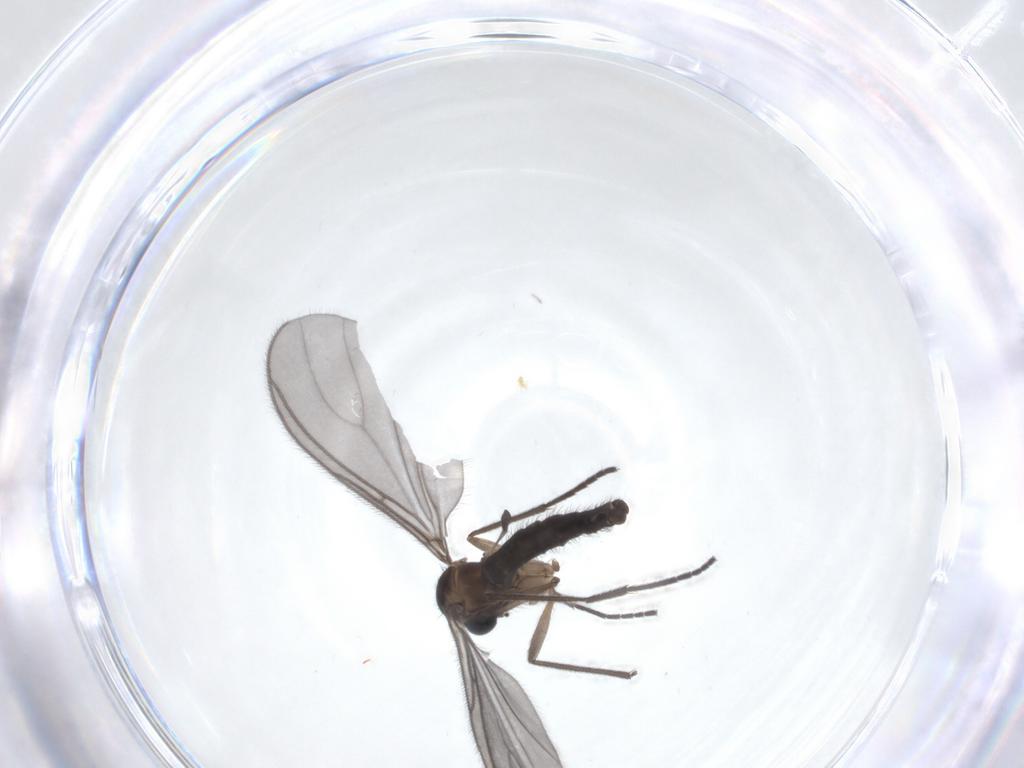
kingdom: Animalia
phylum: Arthropoda
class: Insecta
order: Diptera
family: Sciaridae
